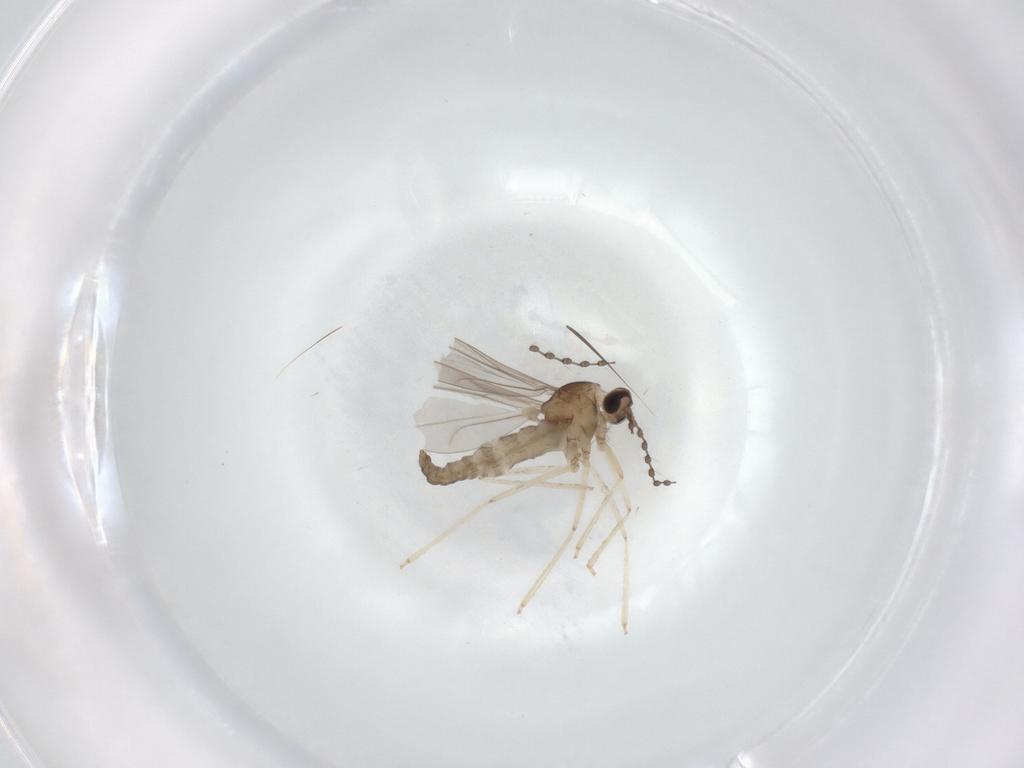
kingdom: Animalia
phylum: Arthropoda
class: Insecta
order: Diptera
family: Cecidomyiidae
